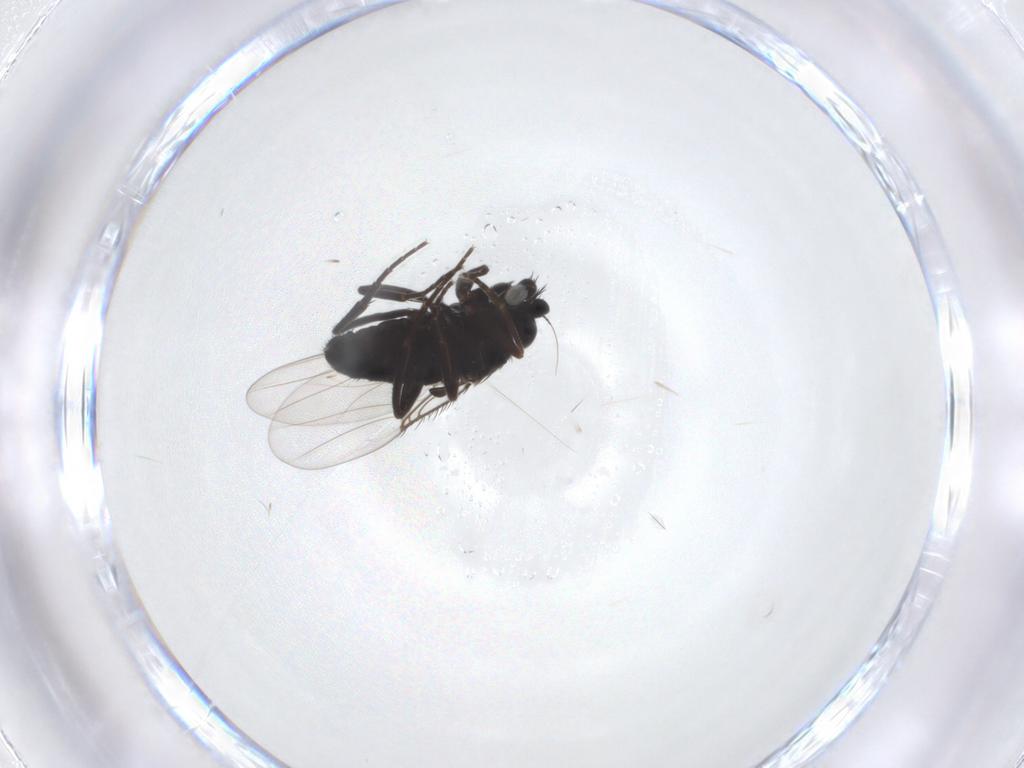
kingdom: Animalia
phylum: Arthropoda
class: Insecta
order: Diptera
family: Phoridae
